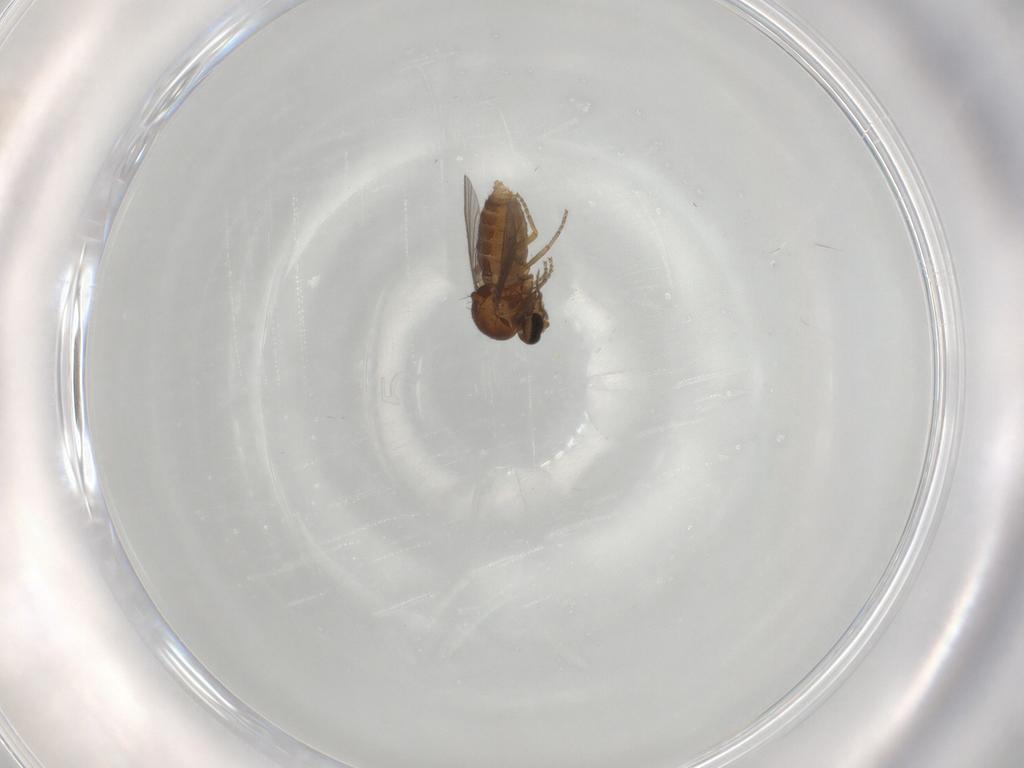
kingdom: Animalia
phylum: Arthropoda
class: Insecta
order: Diptera
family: Ceratopogonidae
